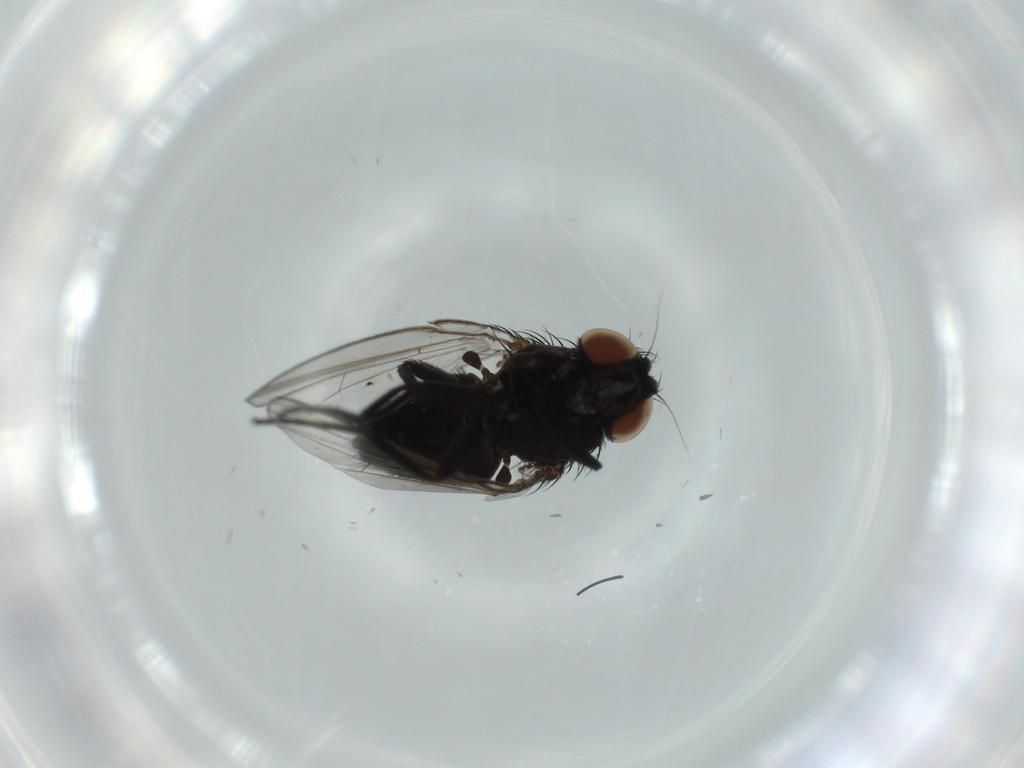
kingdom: Animalia
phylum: Arthropoda
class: Insecta
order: Diptera
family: Milichiidae
